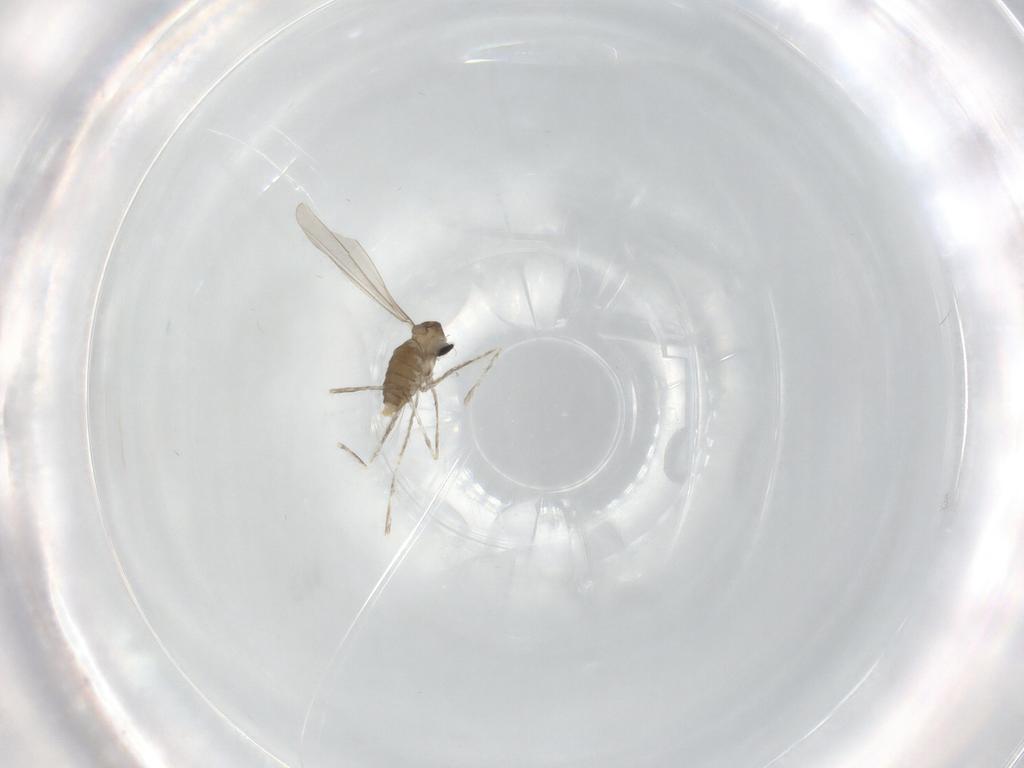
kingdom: Animalia
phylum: Arthropoda
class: Insecta
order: Diptera
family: Cecidomyiidae
